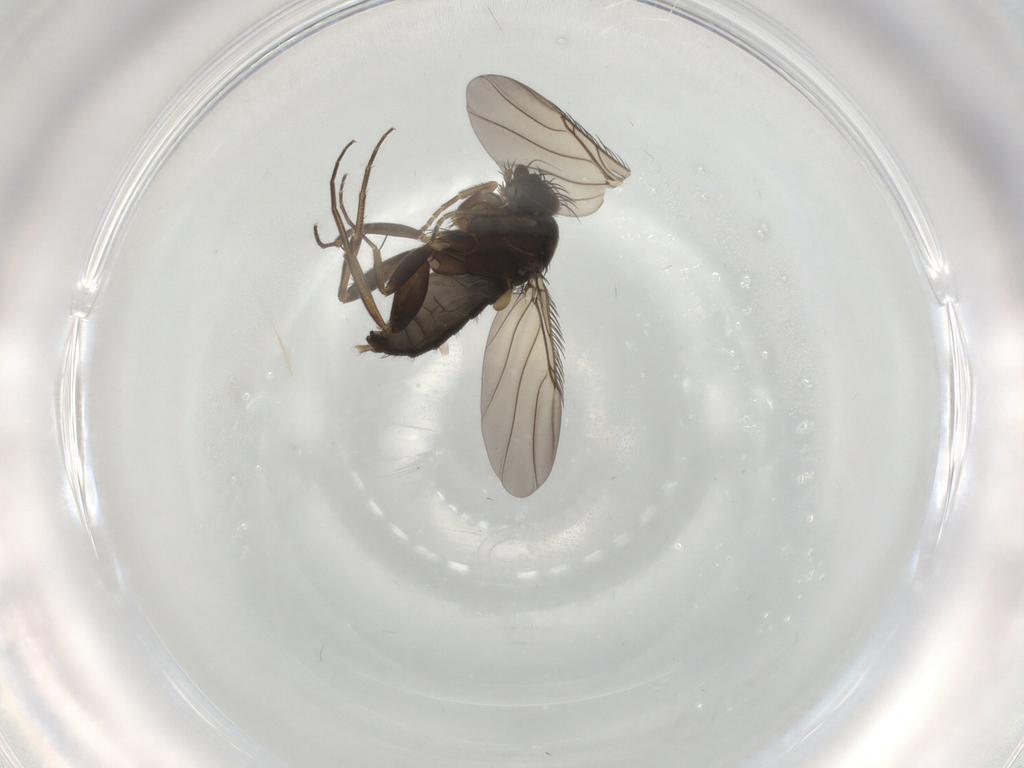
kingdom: Animalia
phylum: Arthropoda
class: Insecta
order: Diptera
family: Phoridae
